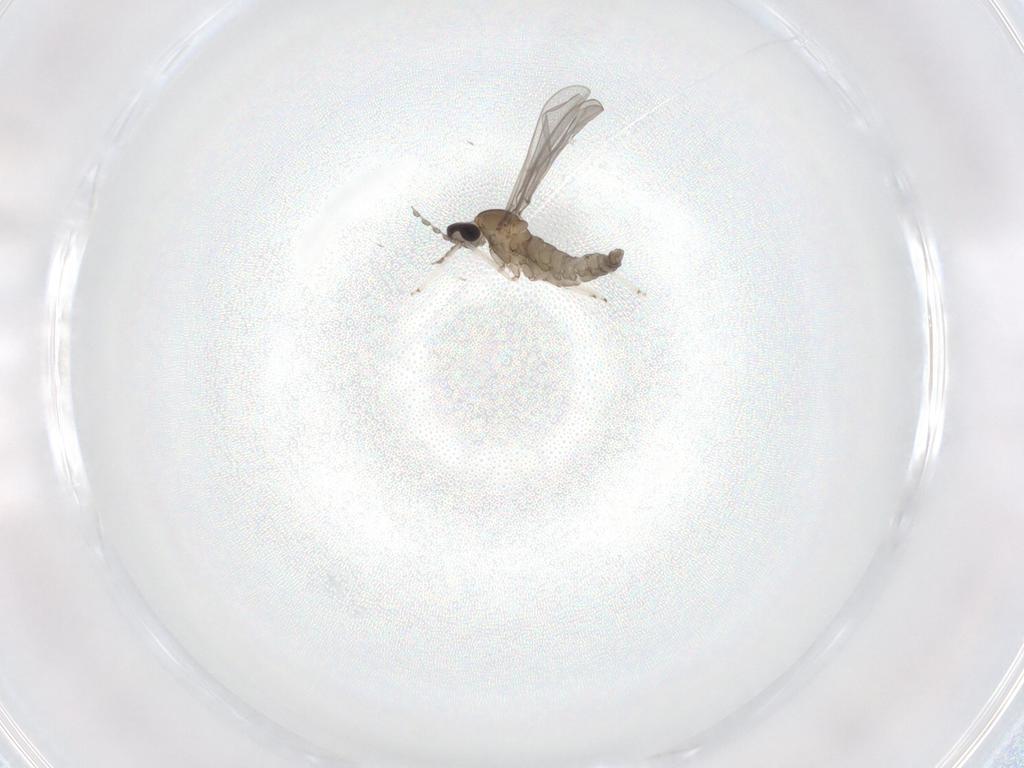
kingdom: Animalia
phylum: Arthropoda
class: Insecta
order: Diptera
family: Cecidomyiidae
